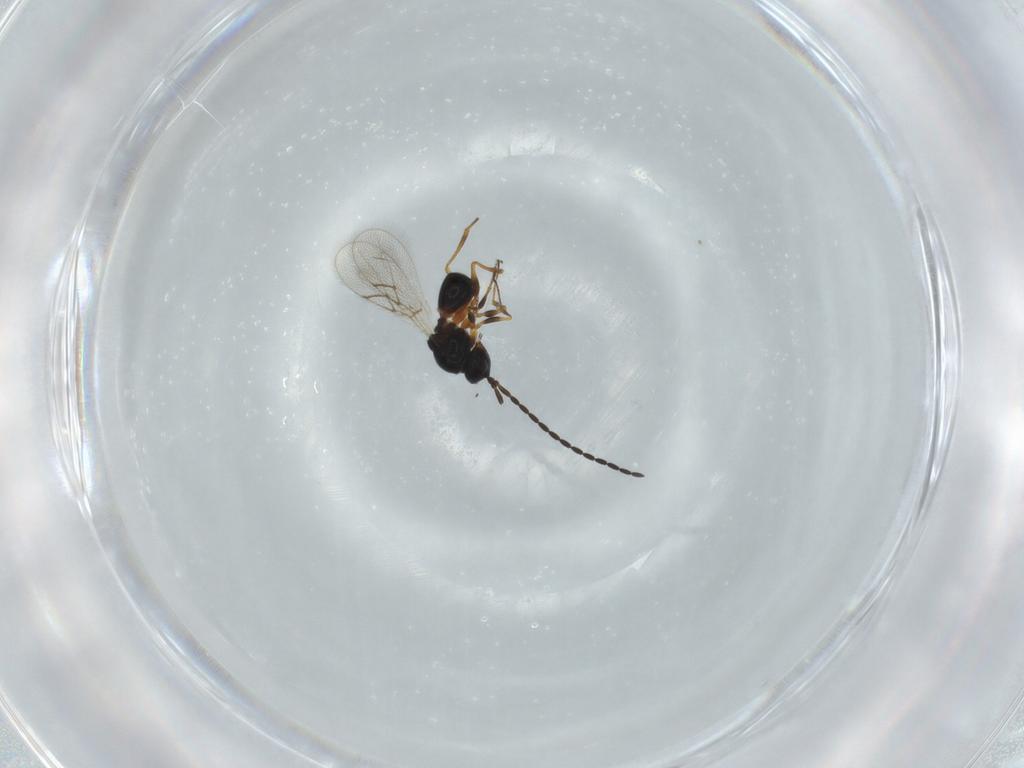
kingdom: Animalia
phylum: Arthropoda
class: Insecta
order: Hymenoptera
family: Figitidae
